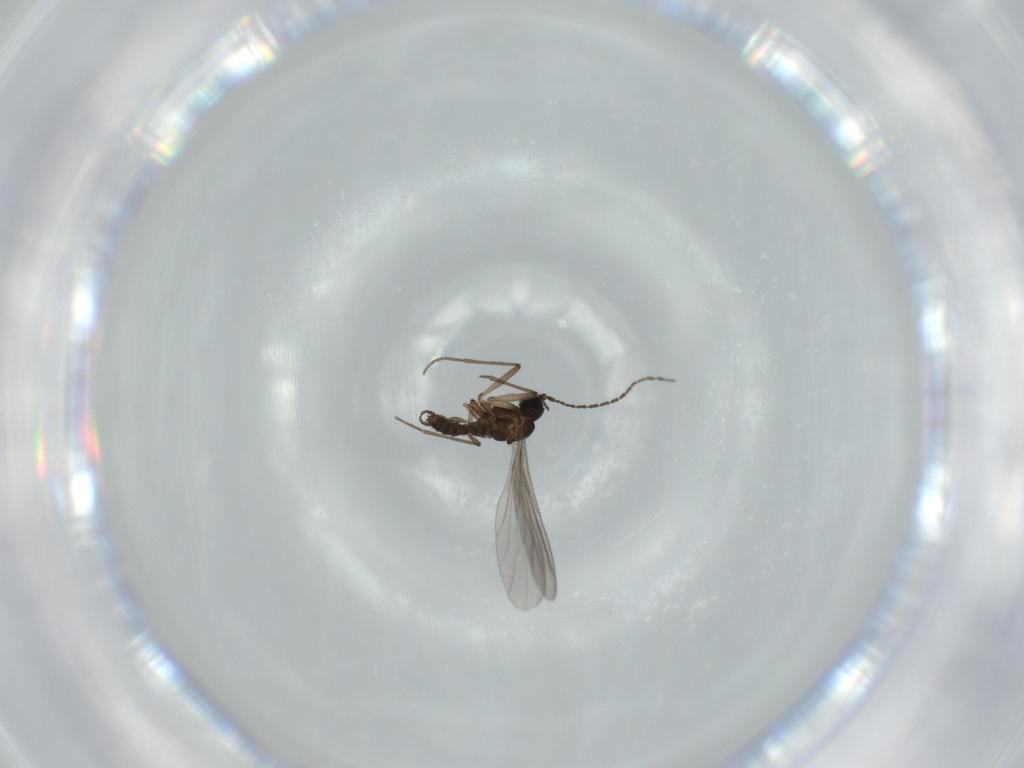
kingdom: Animalia
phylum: Arthropoda
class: Insecta
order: Diptera
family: Sciaridae
